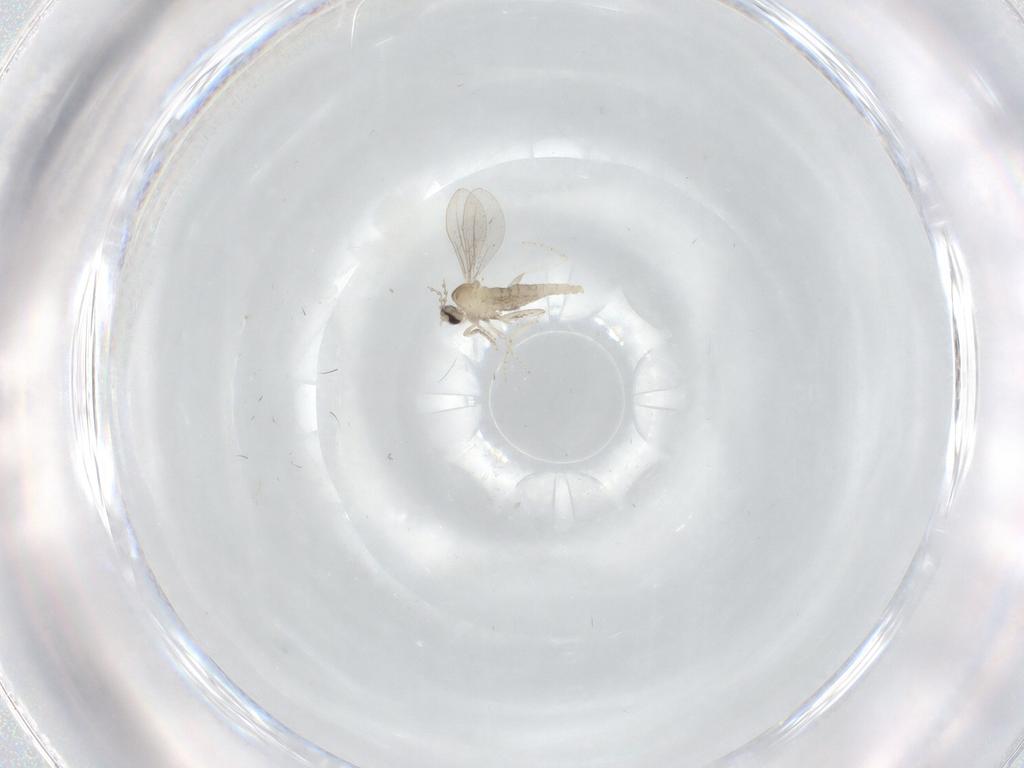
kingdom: Animalia
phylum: Arthropoda
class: Insecta
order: Diptera
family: Cecidomyiidae
